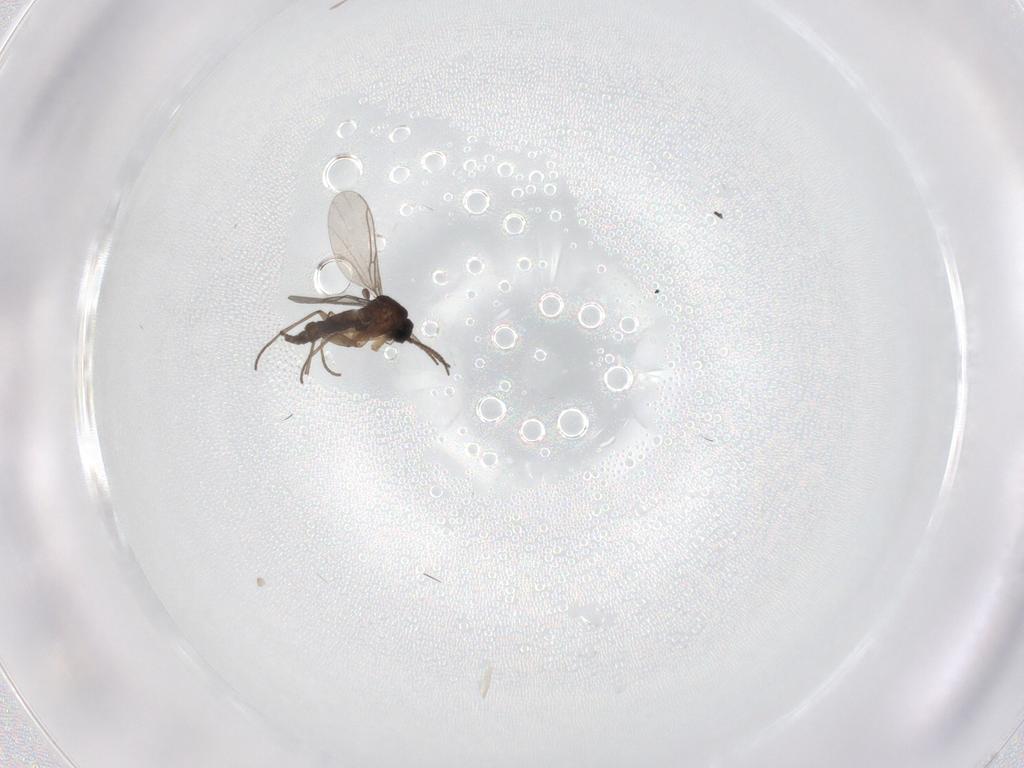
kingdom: Animalia
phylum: Arthropoda
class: Insecta
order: Diptera
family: Sciaridae
